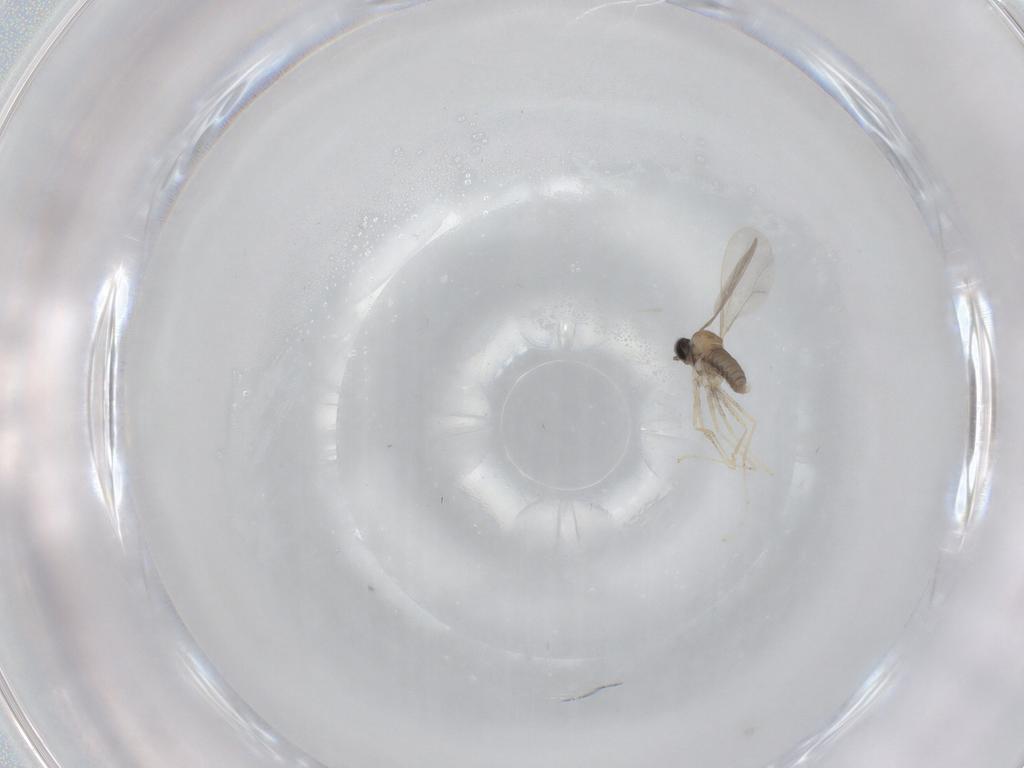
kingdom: Animalia
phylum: Arthropoda
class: Insecta
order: Diptera
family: Cecidomyiidae
